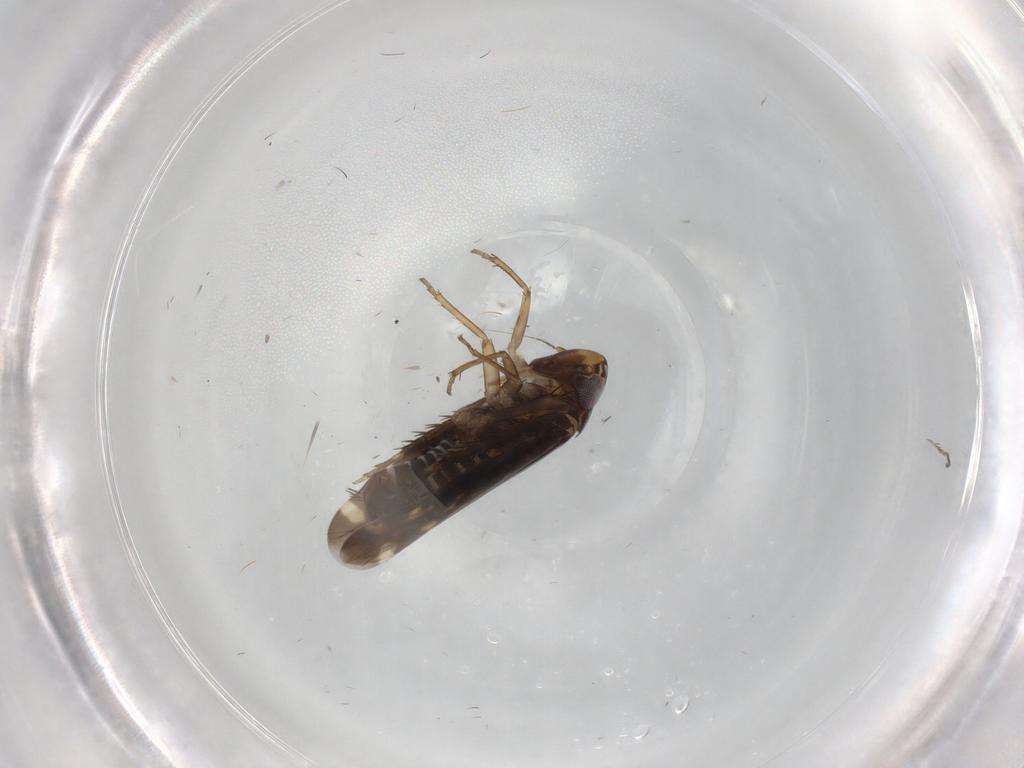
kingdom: Animalia
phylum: Arthropoda
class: Insecta
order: Hemiptera
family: Cicadellidae
